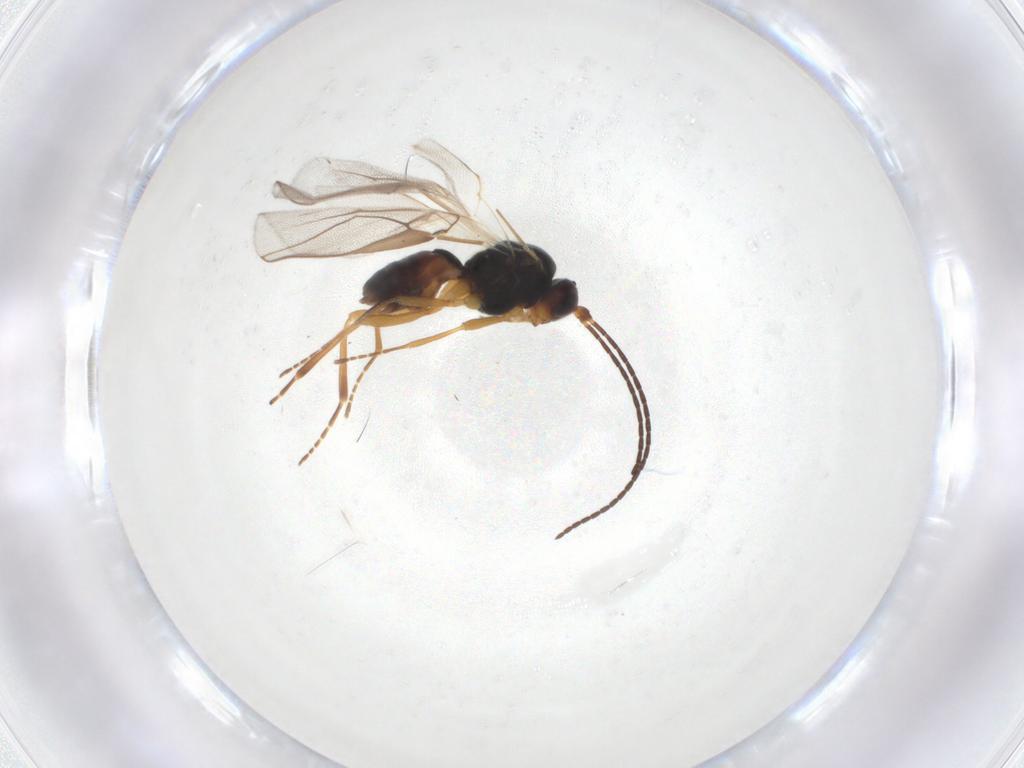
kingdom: Animalia
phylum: Arthropoda
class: Insecta
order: Hymenoptera
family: Braconidae
